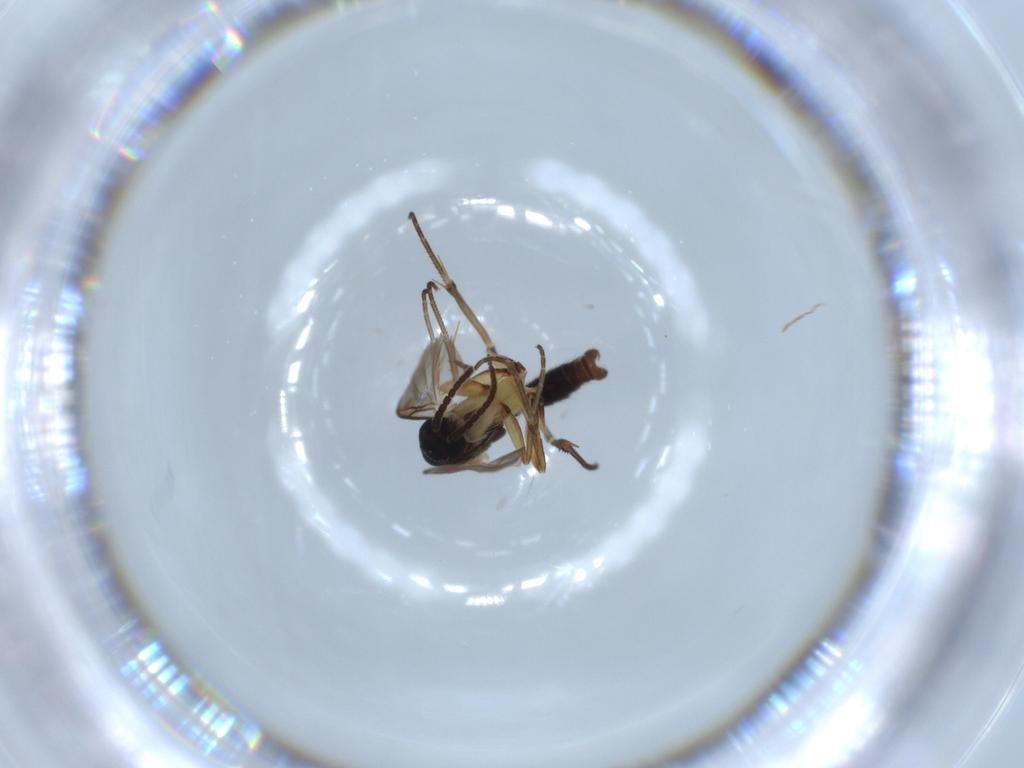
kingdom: Animalia
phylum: Arthropoda
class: Insecta
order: Diptera
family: Mycetophilidae
